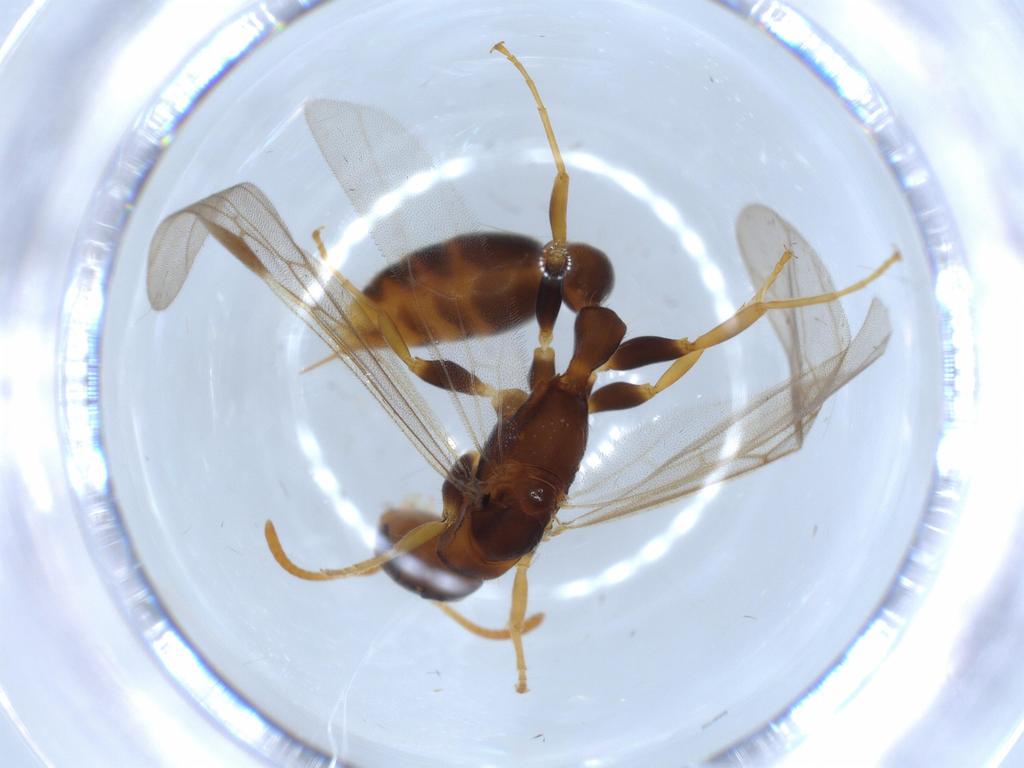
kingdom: Animalia
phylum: Arthropoda
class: Insecta
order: Hymenoptera
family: Formicidae
